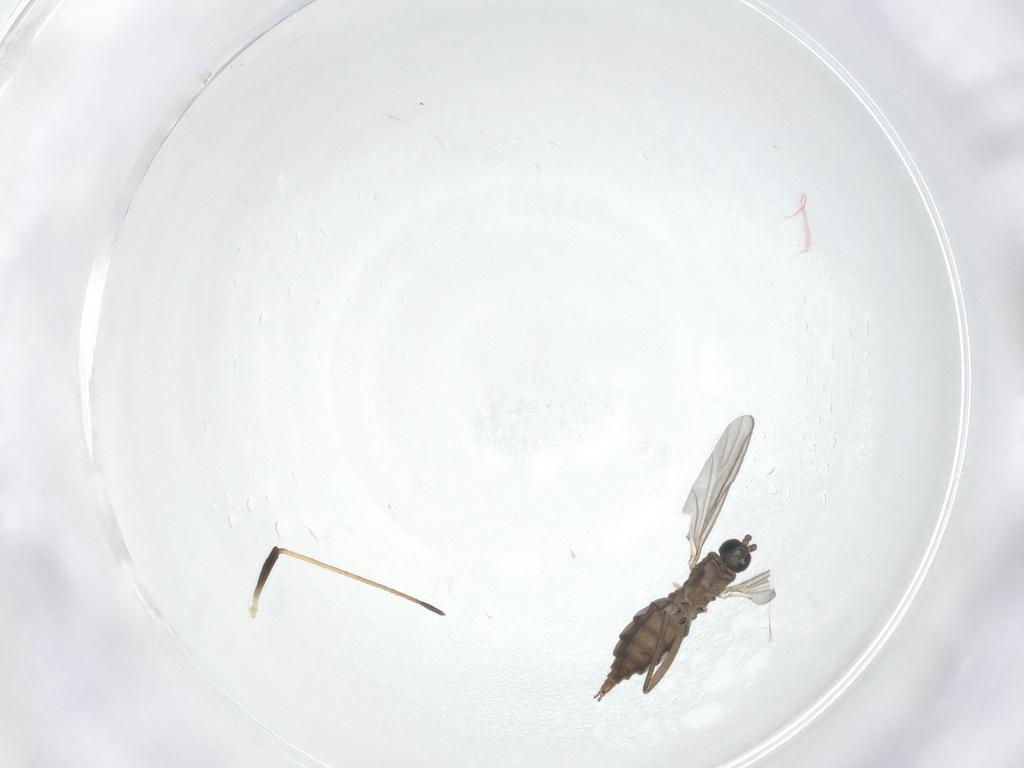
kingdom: Animalia
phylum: Arthropoda
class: Insecta
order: Diptera
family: Sciaridae
